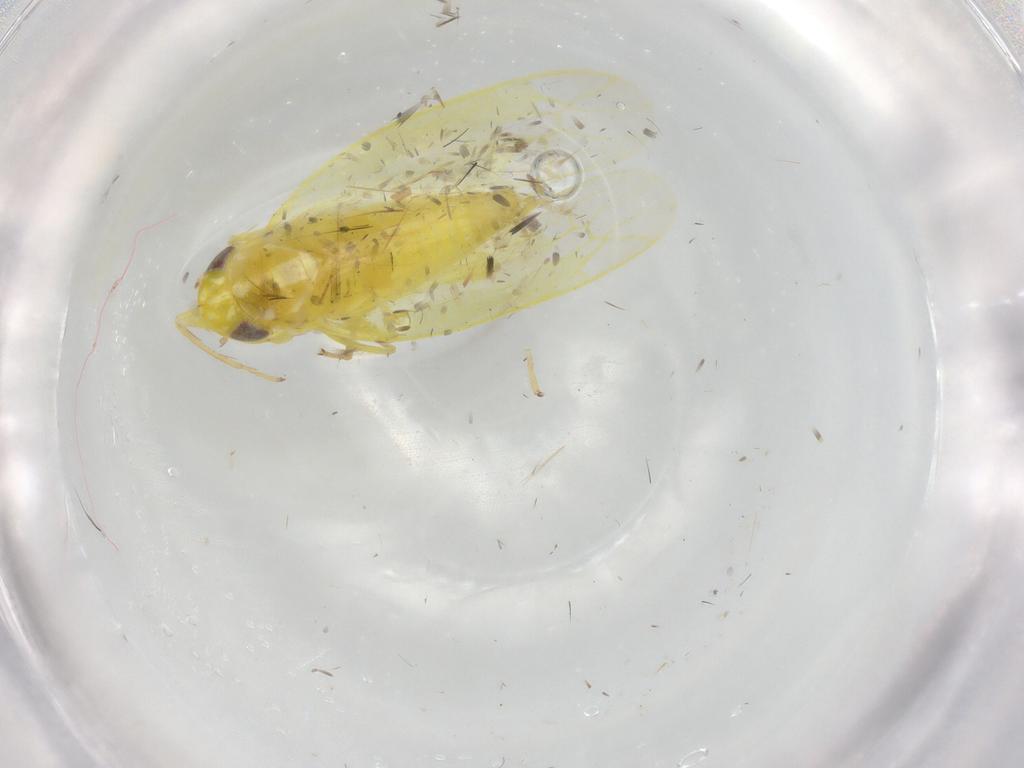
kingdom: Animalia
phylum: Arthropoda
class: Insecta
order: Hemiptera
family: Cicadellidae
